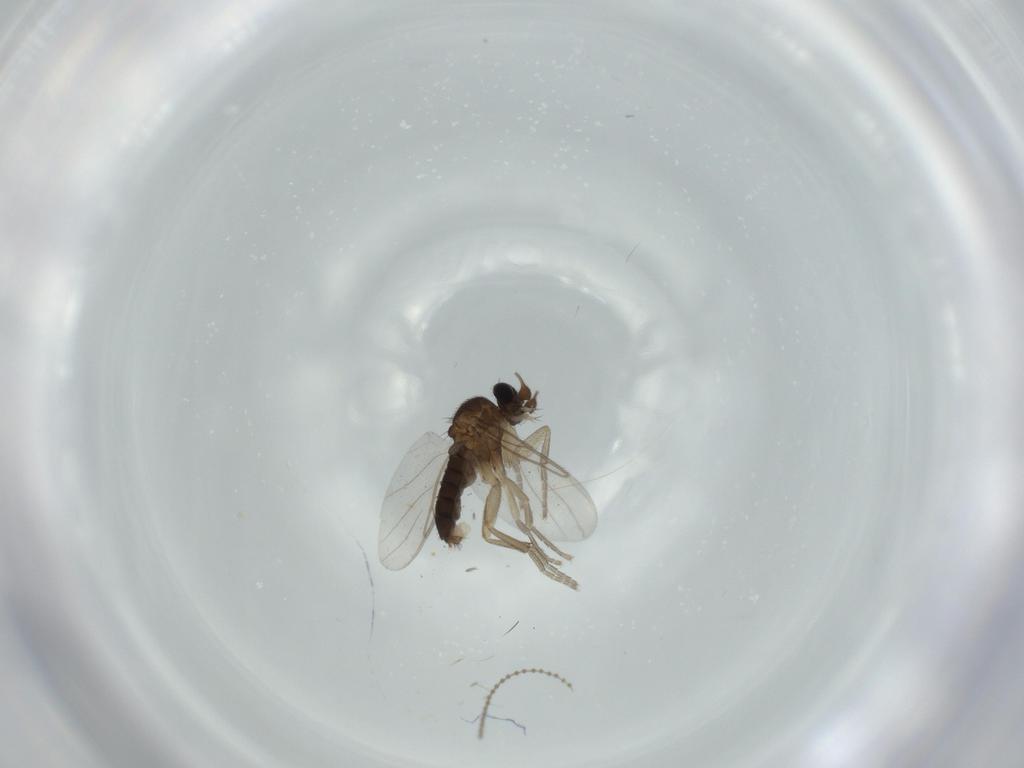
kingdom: Animalia
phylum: Arthropoda
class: Insecta
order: Diptera
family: Phoridae
